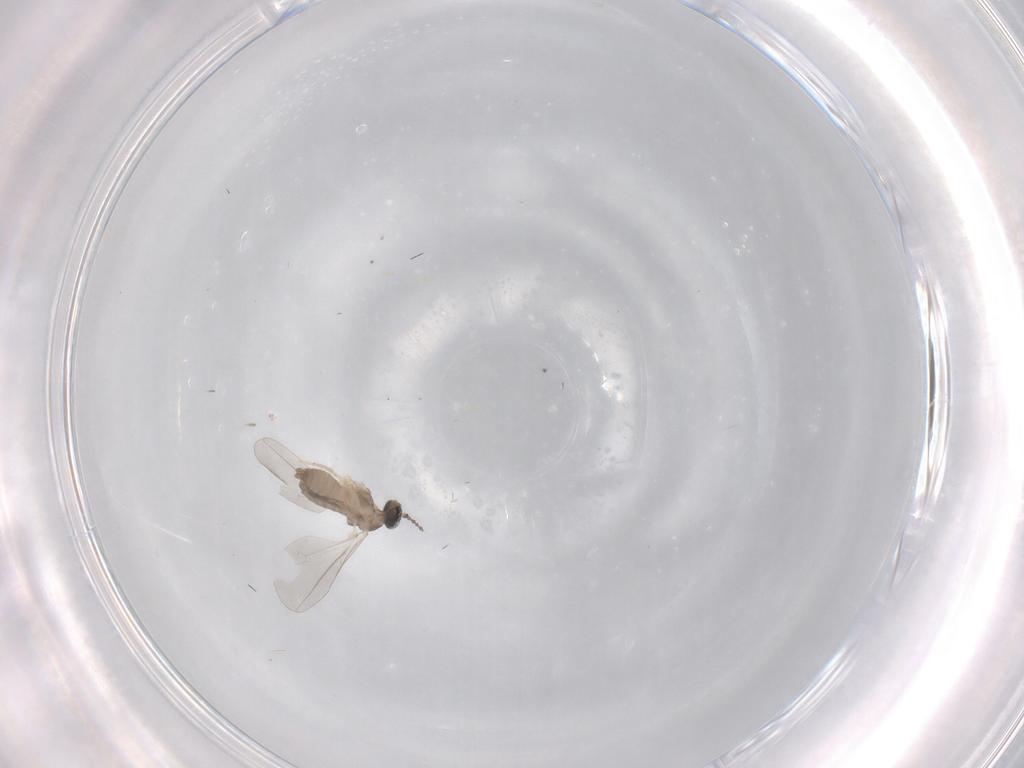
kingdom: Animalia
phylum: Arthropoda
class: Insecta
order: Diptera
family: Cecidomyiidae
